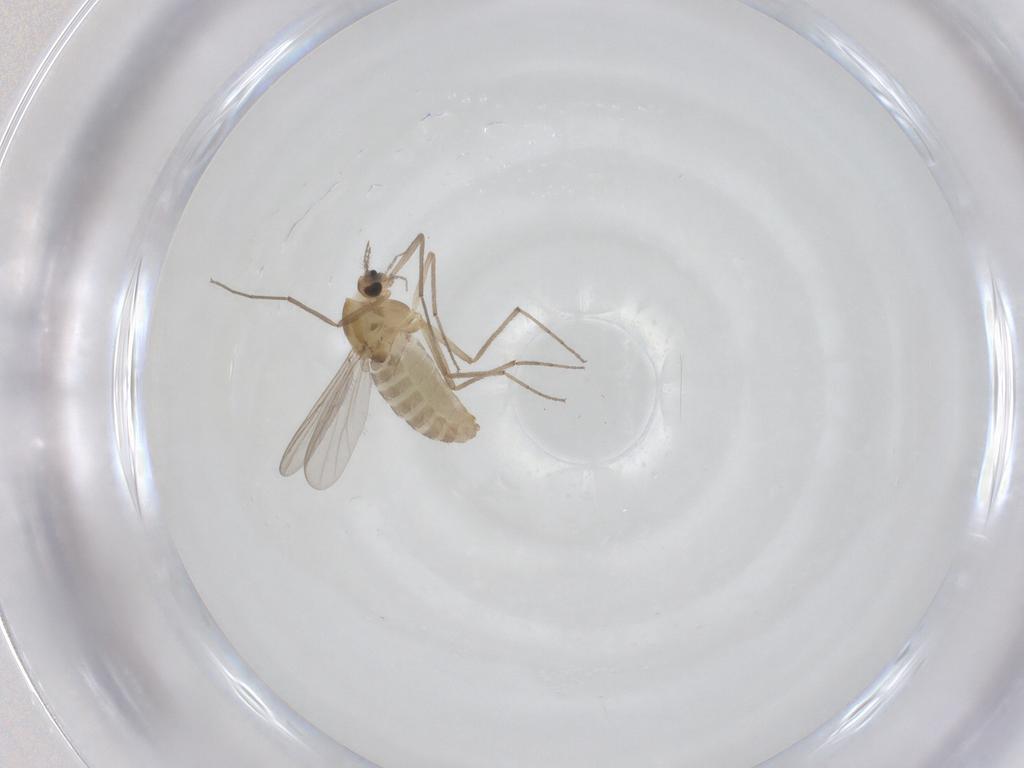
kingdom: Animalia
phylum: Arthropoda
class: Insecta
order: Diptera
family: Chironomidae
